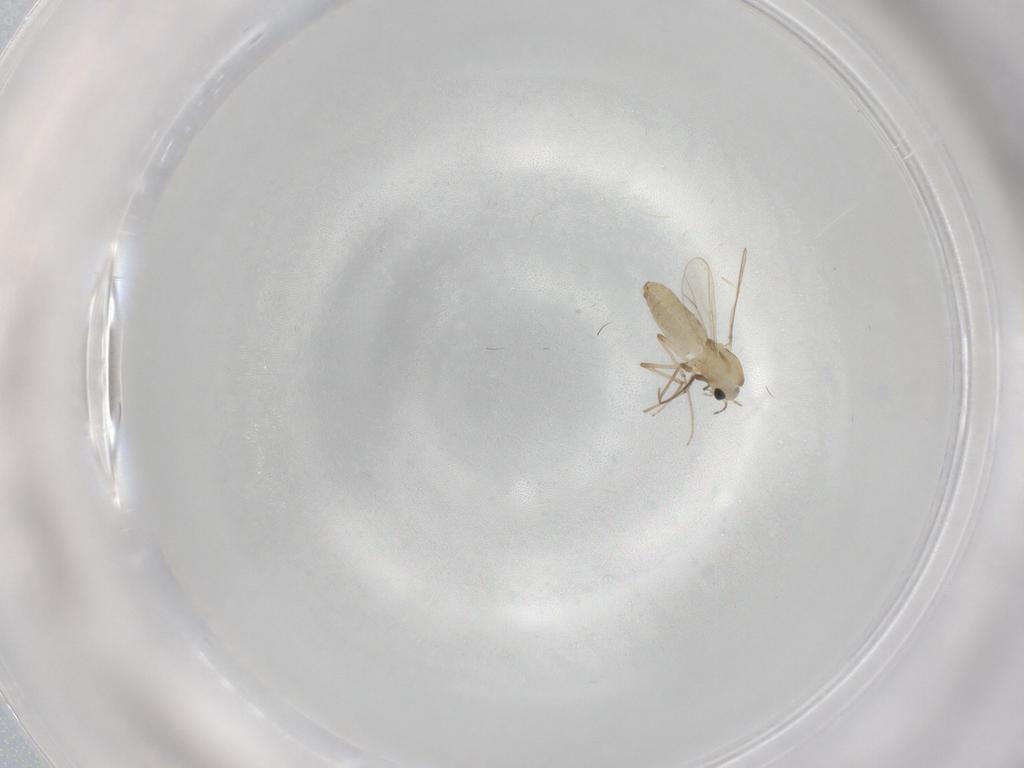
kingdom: Animalia
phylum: Arthropoda
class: Insecta
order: Diptera
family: Chironomidae
